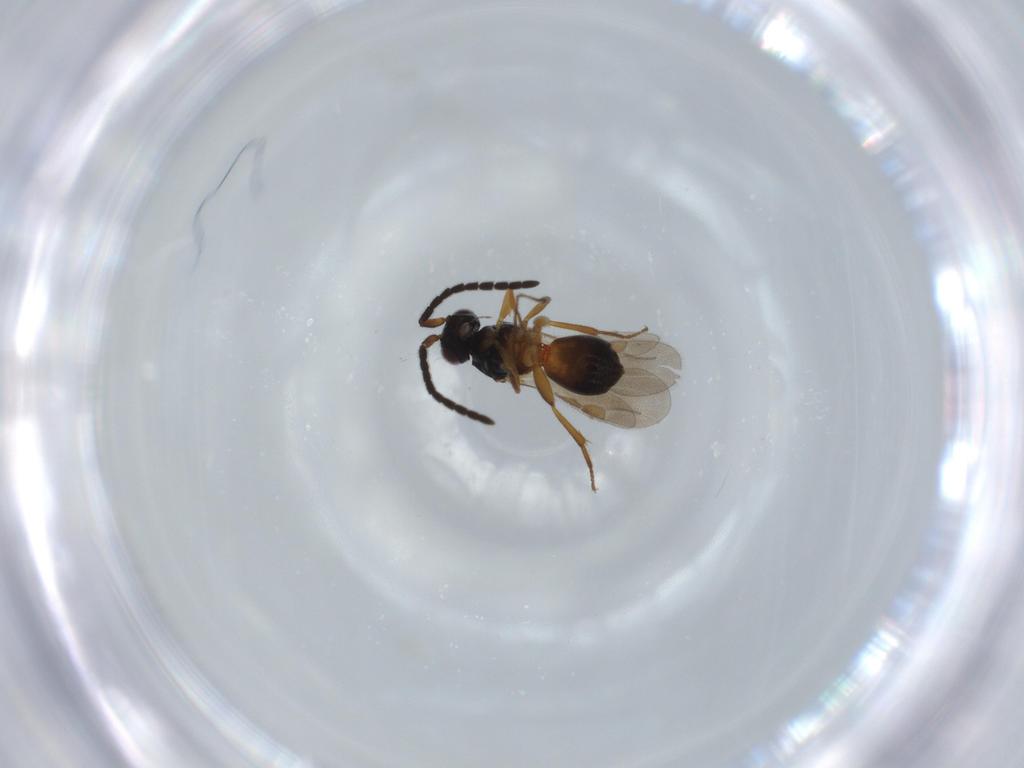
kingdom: Animalia
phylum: Arthropoda
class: Insecta
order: Hymenoptera
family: Megaspilidae
